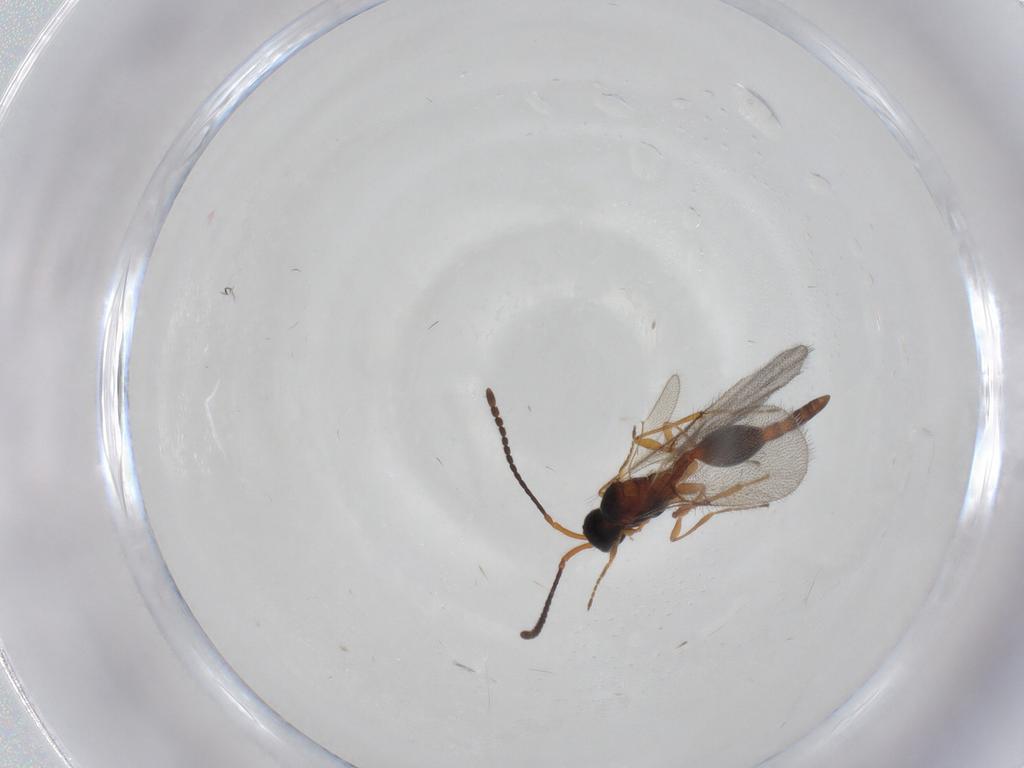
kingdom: Animalia
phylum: Arthropoda
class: Insecta
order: Hymenoptera
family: Diapriidae
